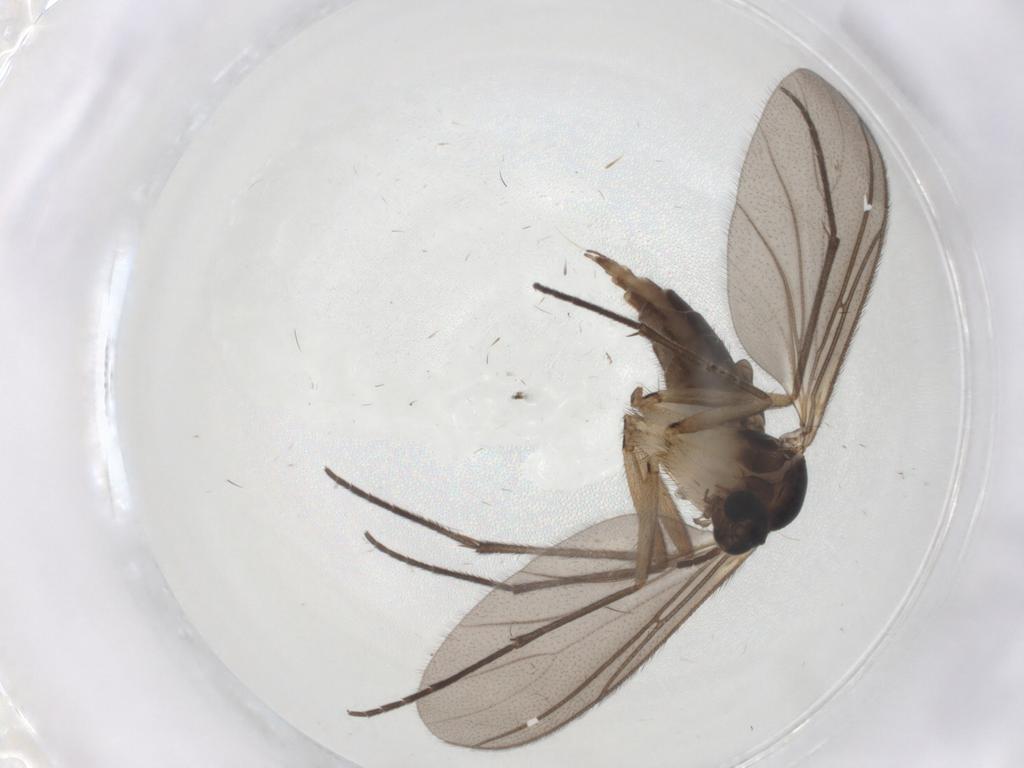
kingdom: Animalia
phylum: Arthropoda
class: Insecta
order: Diptera
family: Sciaridae
